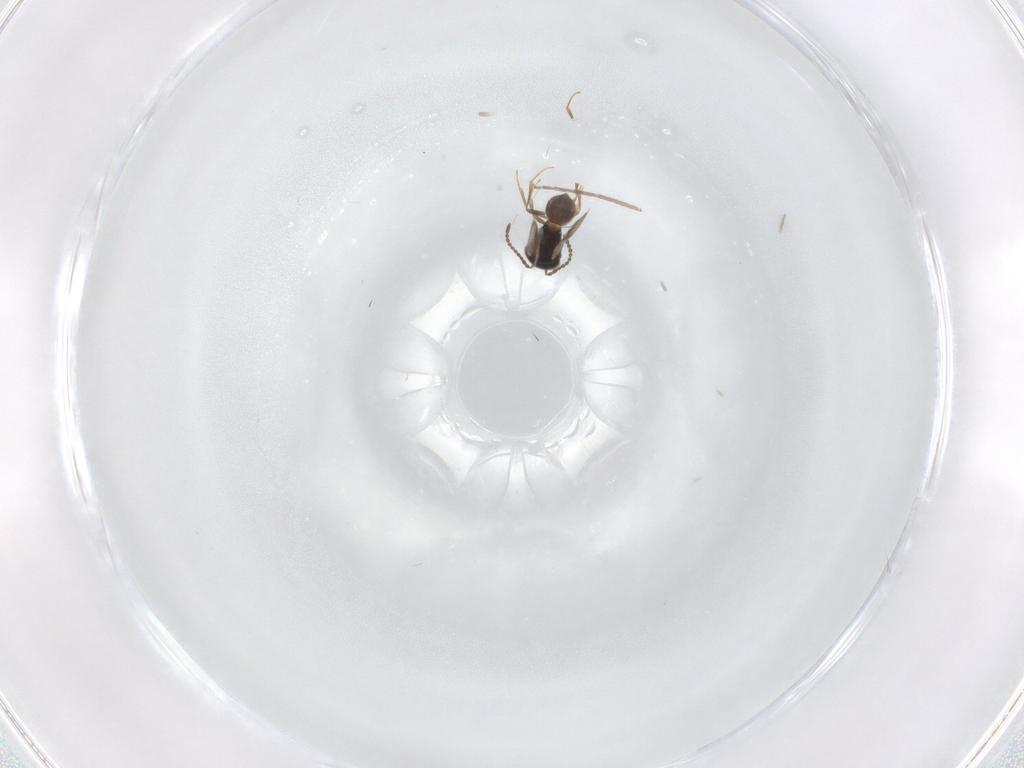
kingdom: Animalia
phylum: Arthropoda
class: Insecta
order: Hymenoptera
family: Scelionidae
